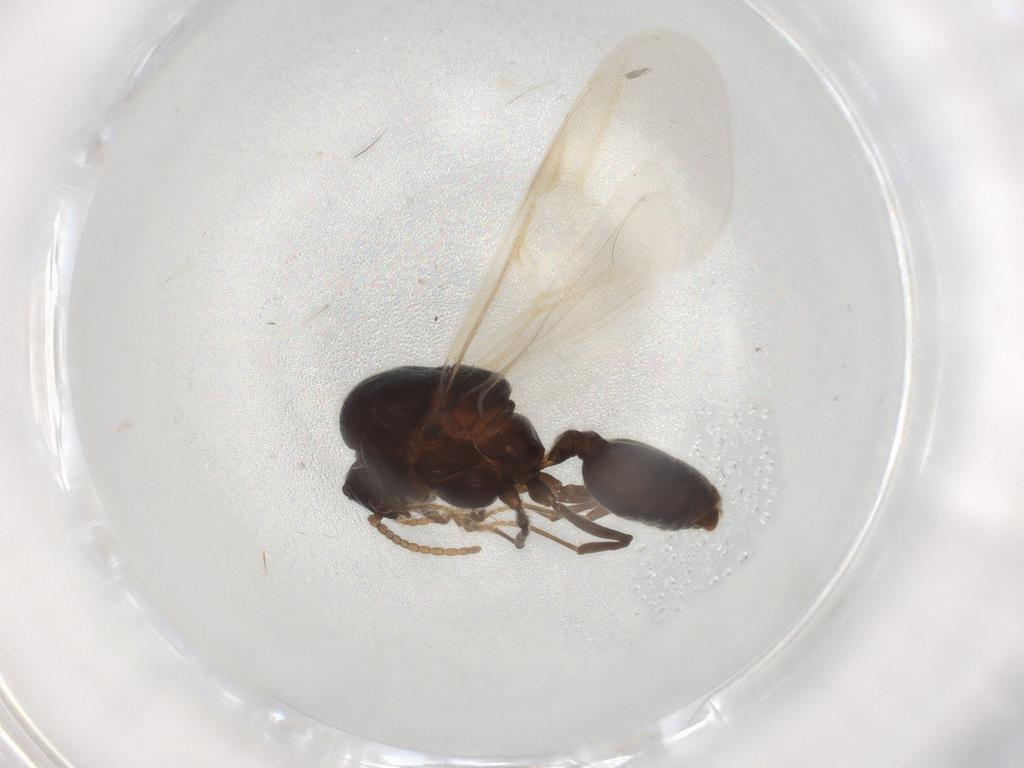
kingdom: Animalia
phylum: Arthropoda
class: Insecta
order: Hymenoptera
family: Formicidae
